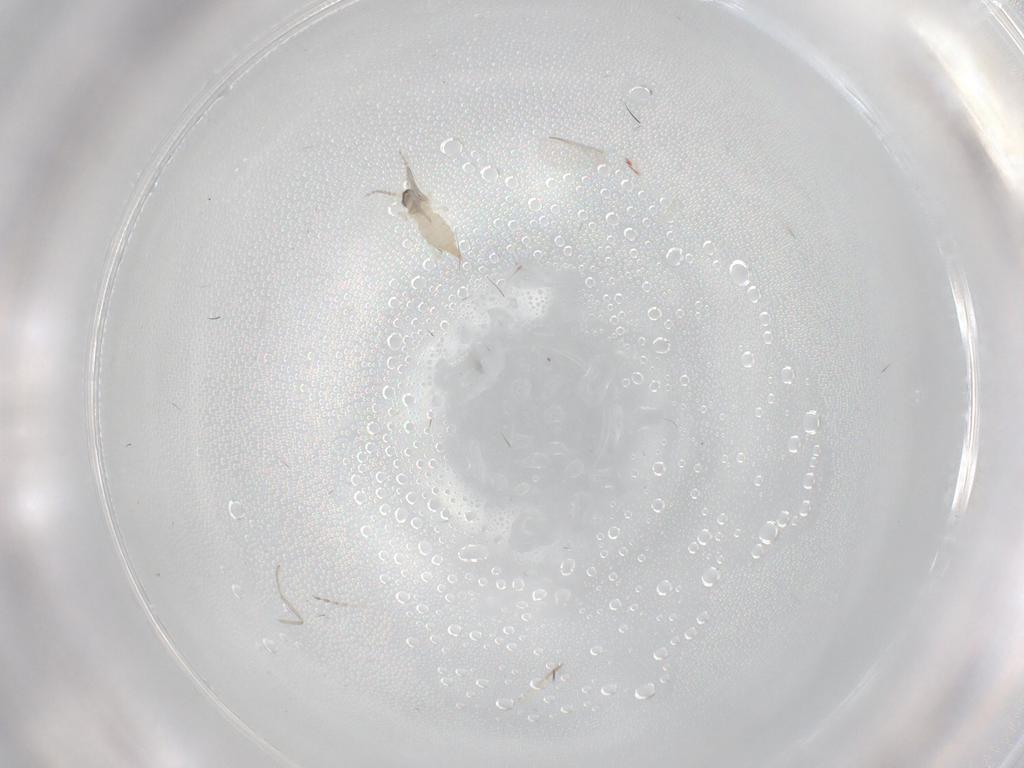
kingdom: Animalia
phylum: Arthropoda
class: Insecta
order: Diptera
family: Cecidomyiidae
